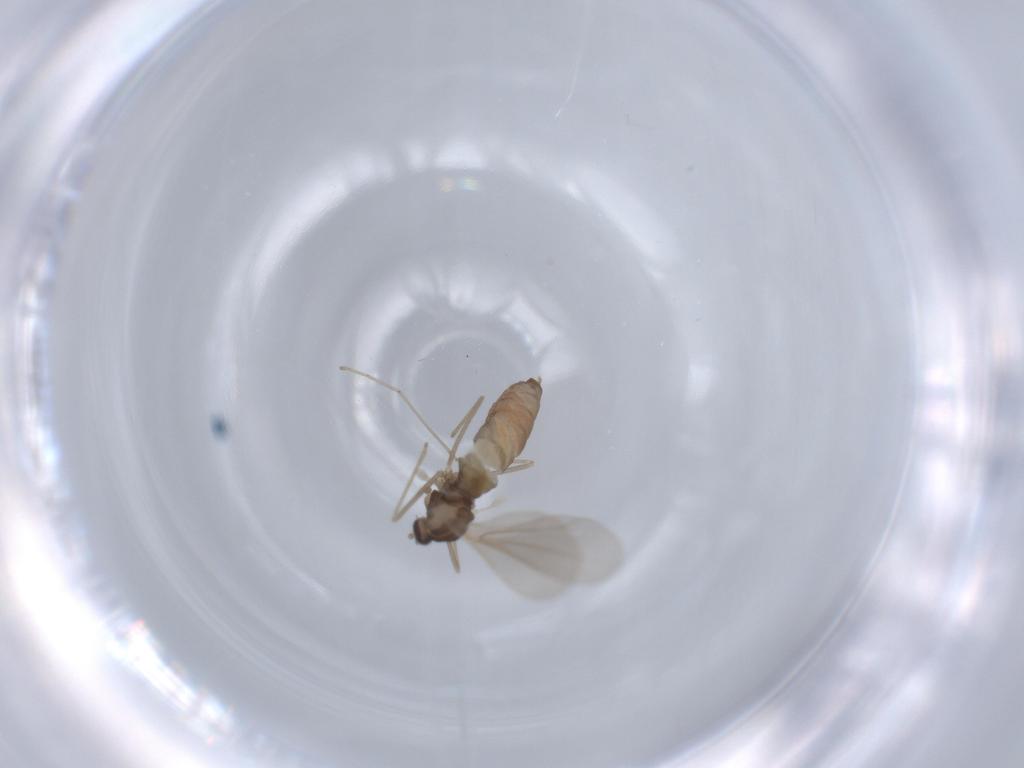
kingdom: Animalia
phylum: Arthropoda
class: Insecta
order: Diptera
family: Cecidomyiidae
